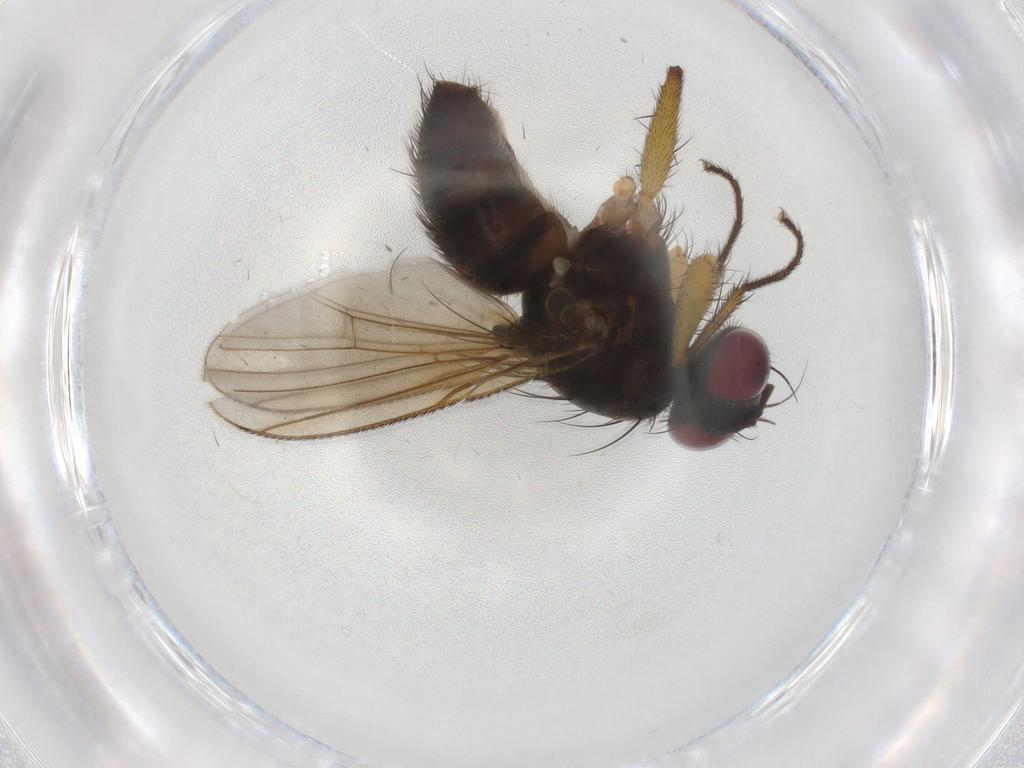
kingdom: Animalia
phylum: Arthropoda
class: Insecta
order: Diptera
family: Muscidae
